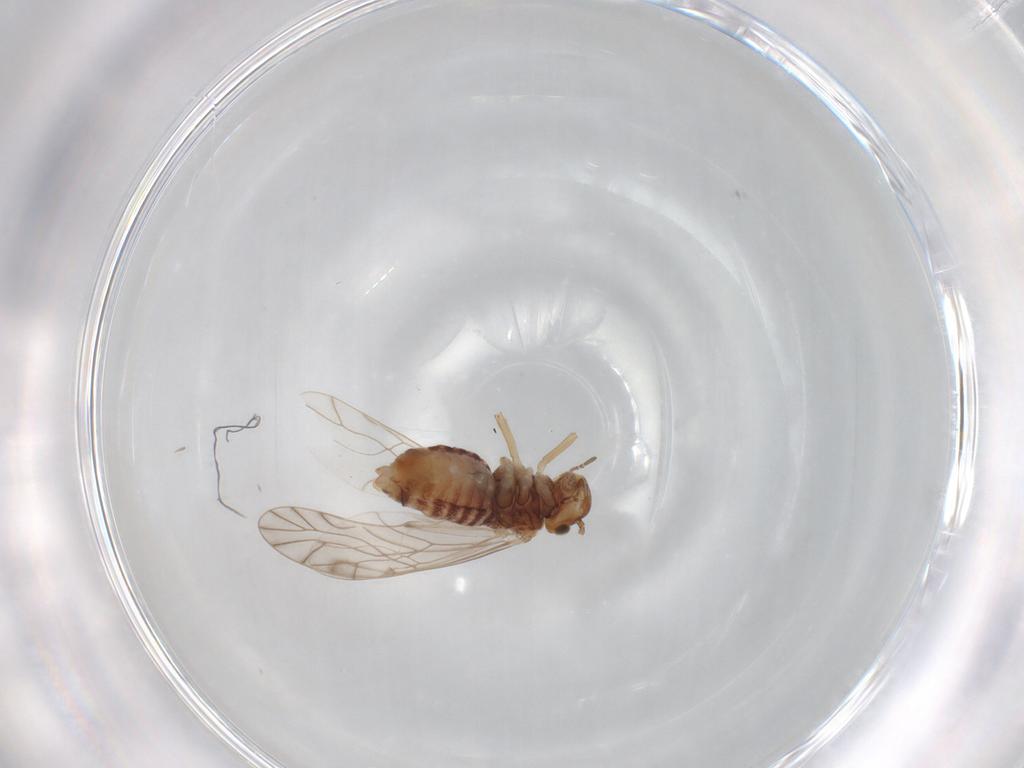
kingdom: Animalia
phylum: Arthropoda
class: Insecta
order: Psocodea
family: Lachesillidae
